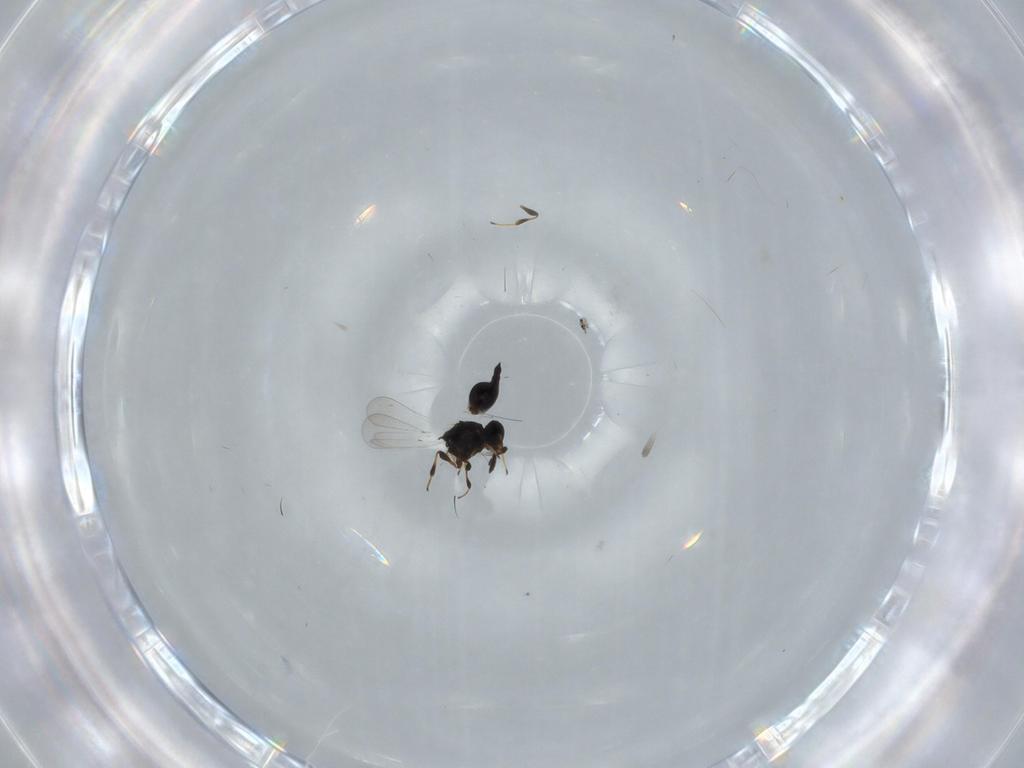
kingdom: Animalia
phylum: Arthropoda
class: Insecta
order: Hymenoptera
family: Platygastridae
